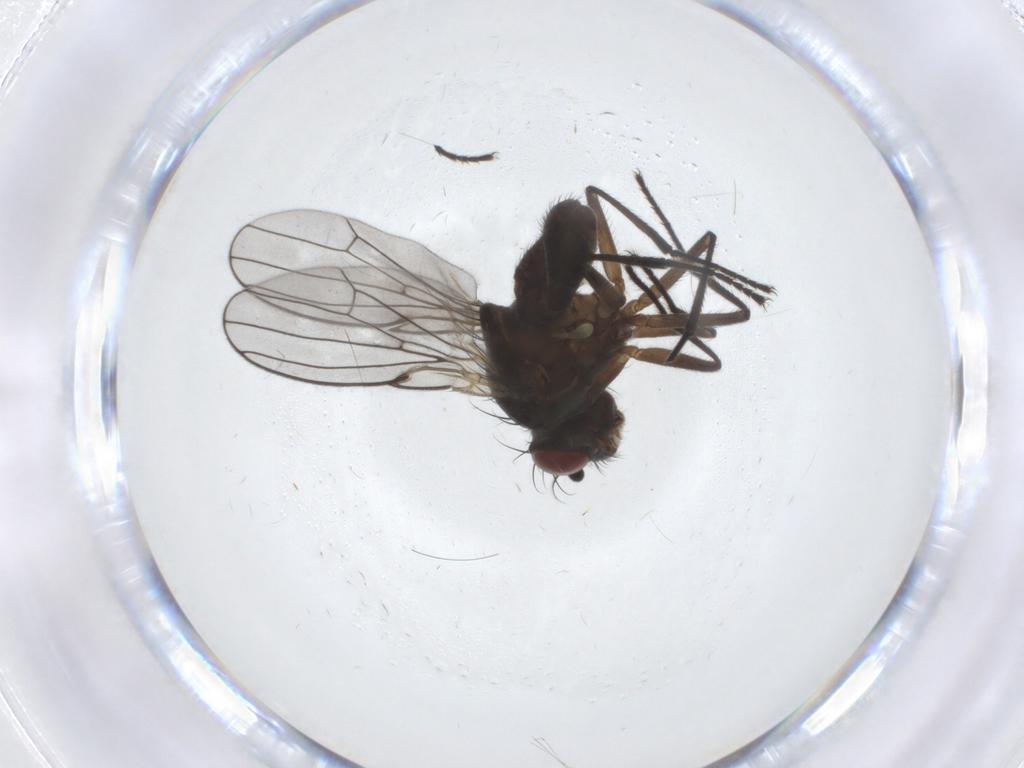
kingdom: Animalia
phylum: Arthropoda
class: Insecta
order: Diptera
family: Ephydridae
